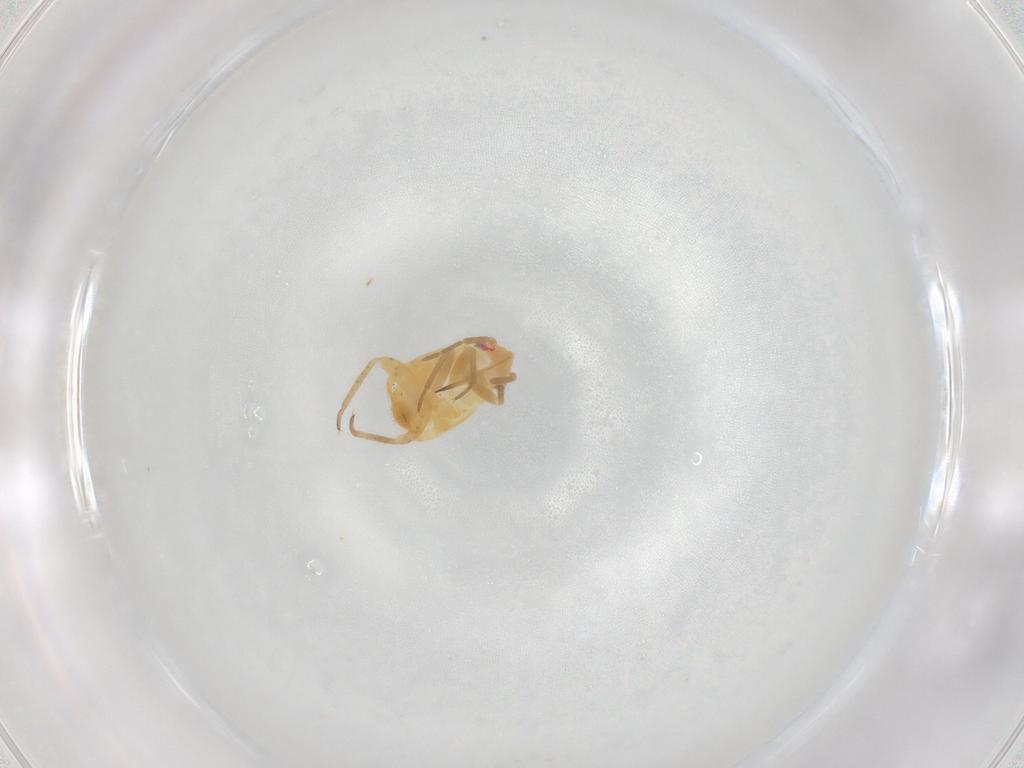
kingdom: Animalia
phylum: Arthropoda
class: Insecta
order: Hemiptera
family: Miridae
